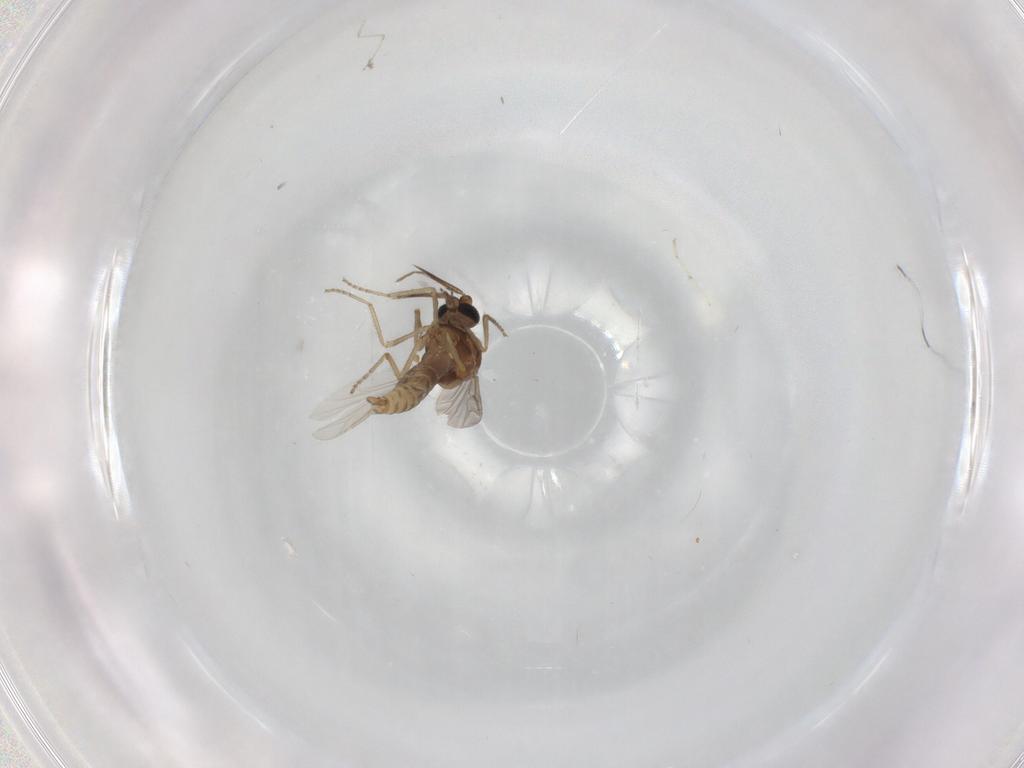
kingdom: Animalia
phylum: Arthropoda
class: Insecta
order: Diptera
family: Ceratopogonidae
